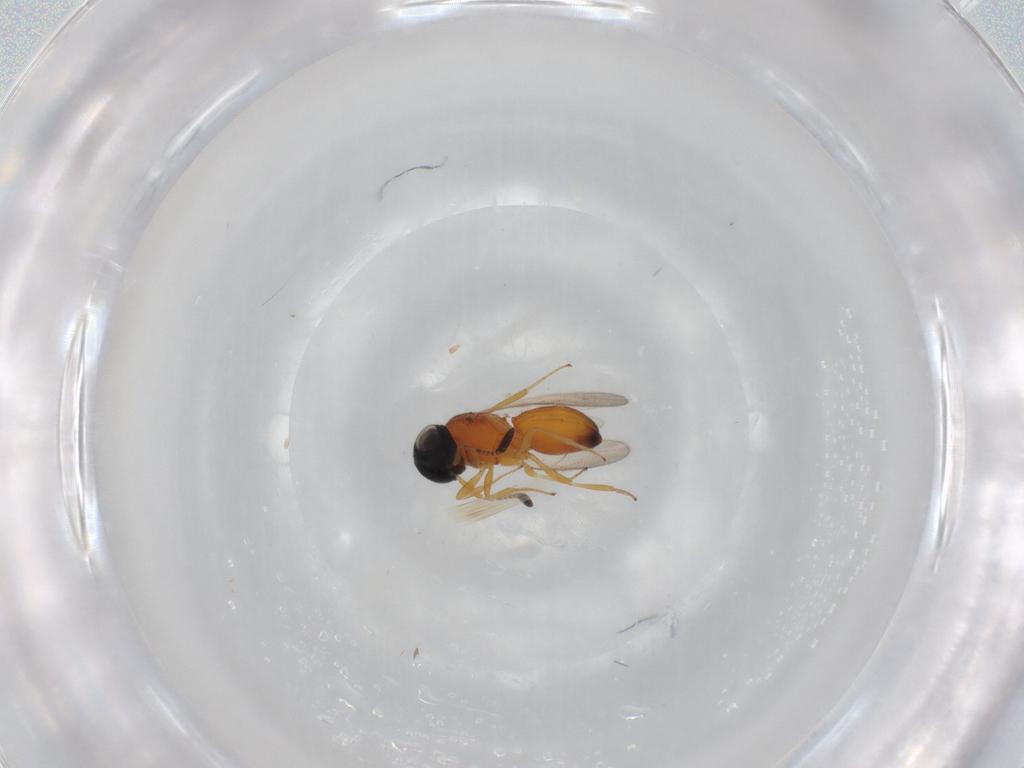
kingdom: Animalia
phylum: Arthropoda
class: Insecta
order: Hymenoptera
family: Scelionidae
